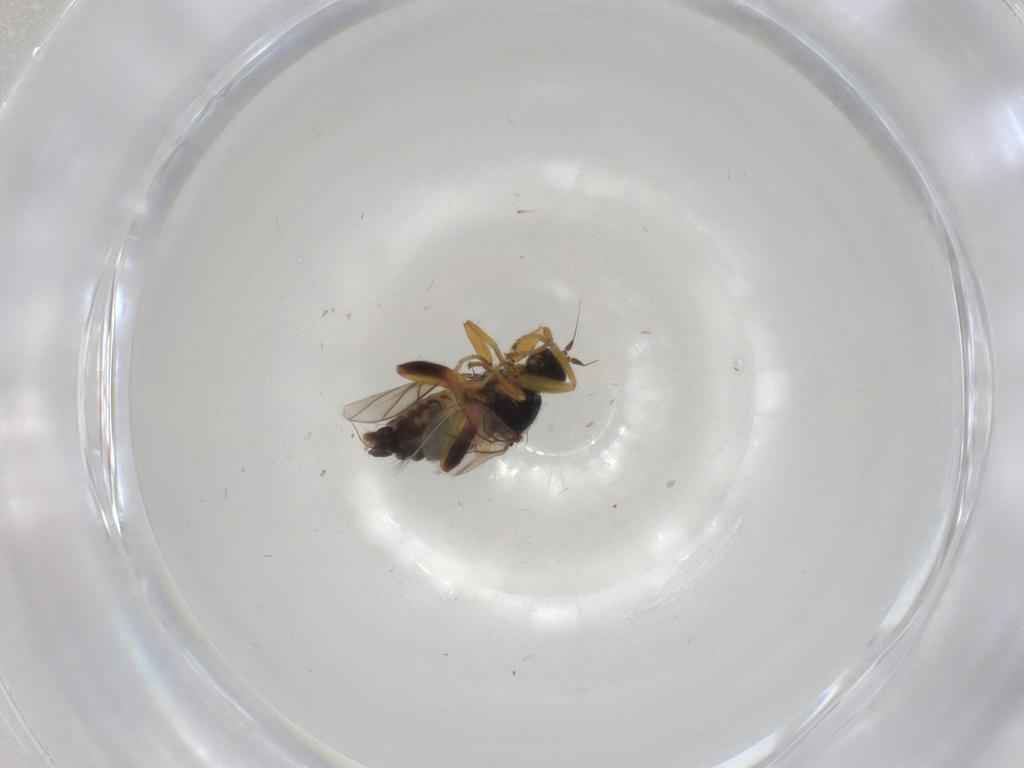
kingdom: Animalia
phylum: Arthropoda
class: Insecta
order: Diptera
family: Hybotidae
